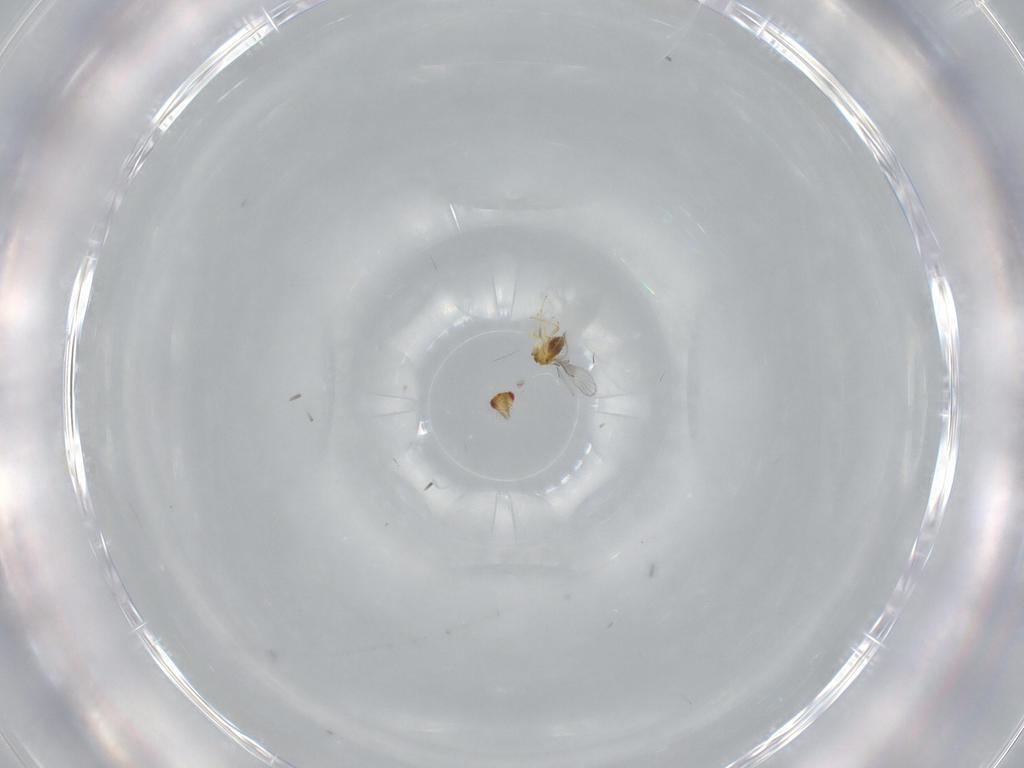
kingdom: Animalia
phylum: Arthropoda
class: Insecta
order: Hymenoptera
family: Trichogrammatidae
